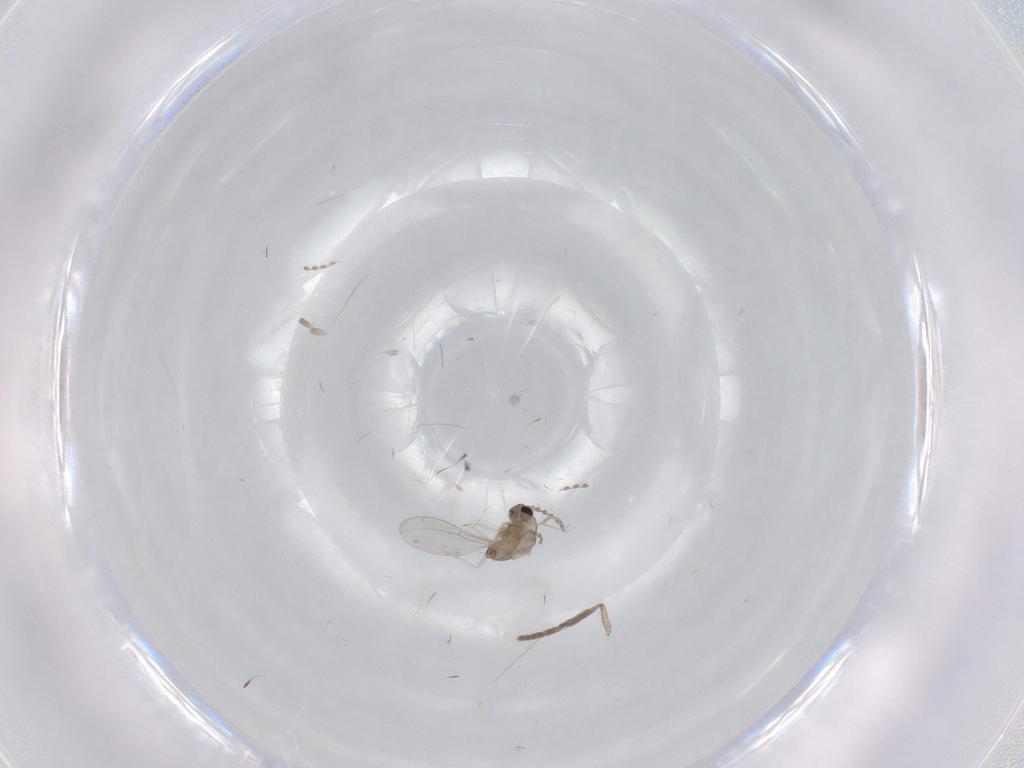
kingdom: Animalia
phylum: Arthropoda
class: Insecta
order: Diptera
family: Cecidomyiidae
